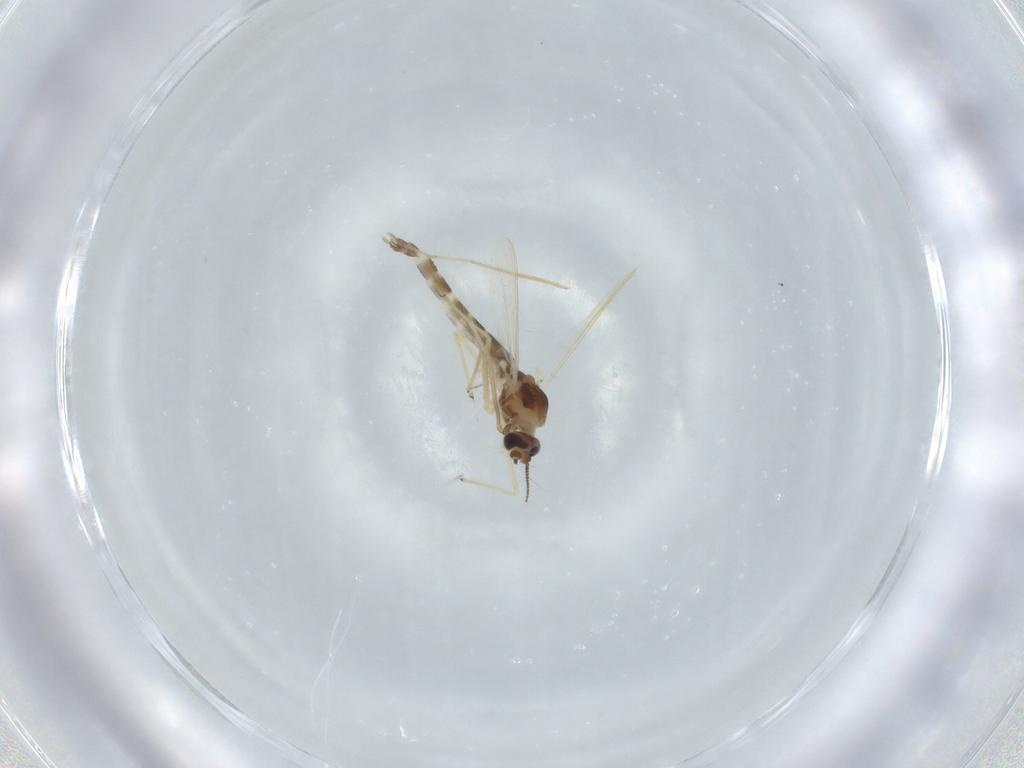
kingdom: Animalia
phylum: Arthropoda
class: Insecta
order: Diptera
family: Chironomidae
